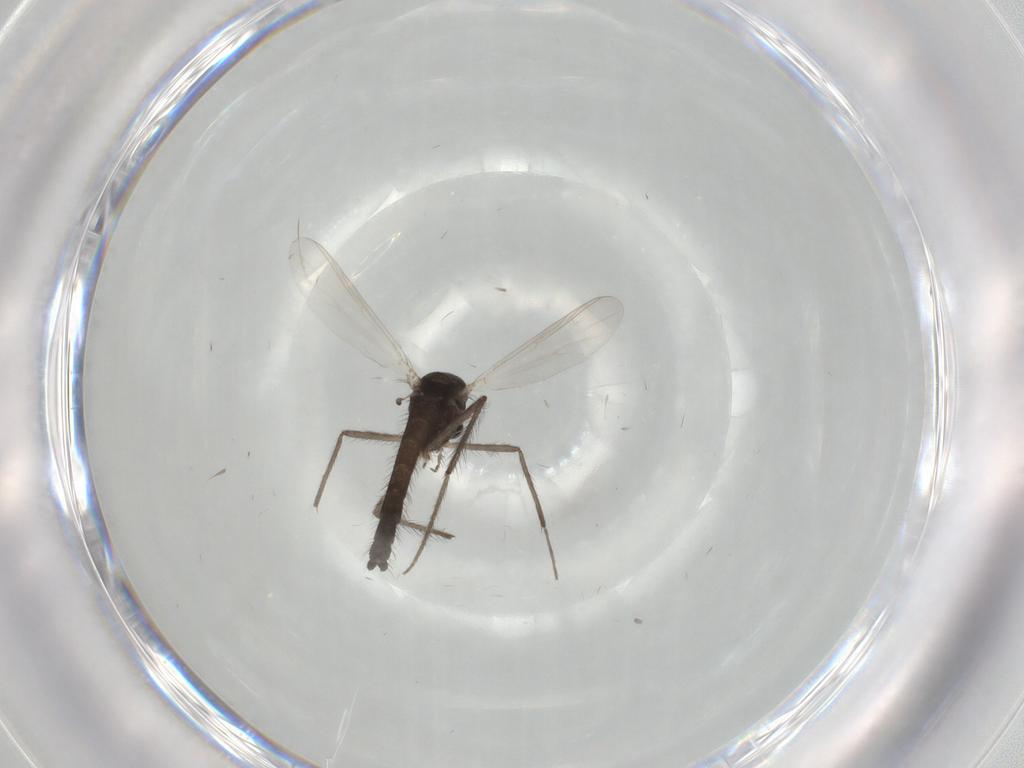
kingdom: Animalia
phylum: Arthropoda
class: Insecta
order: Diptera
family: Chironomidae
